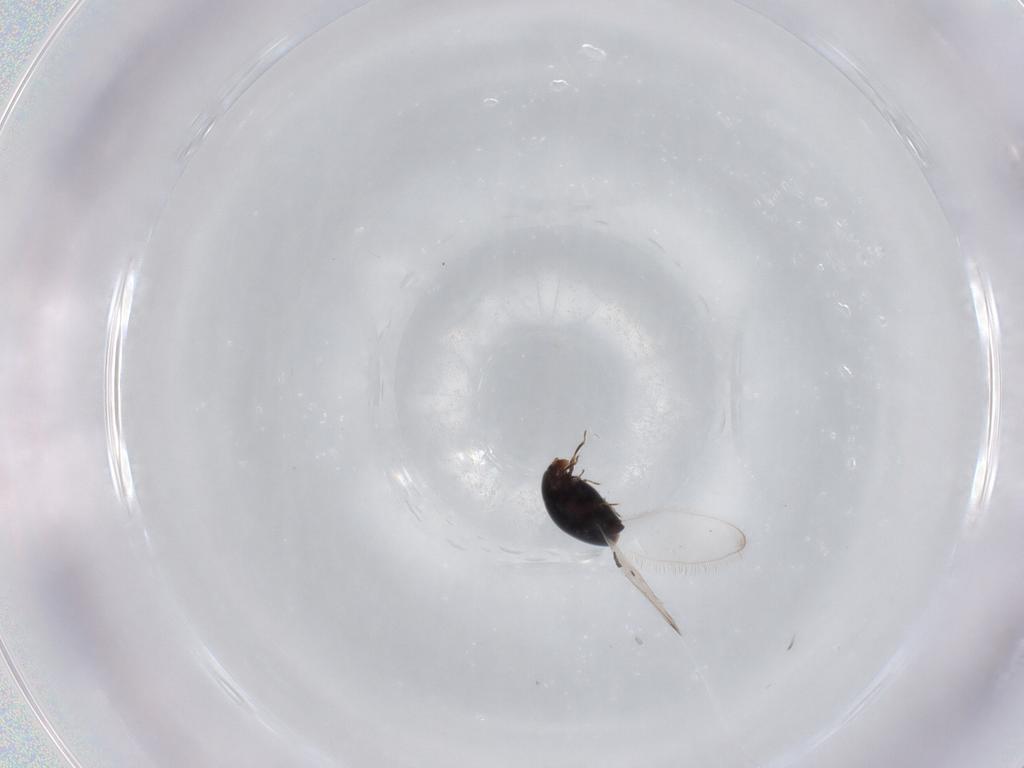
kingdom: Animalia
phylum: Arthropoda
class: Insecta
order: Coleoptera
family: Corylophidae
